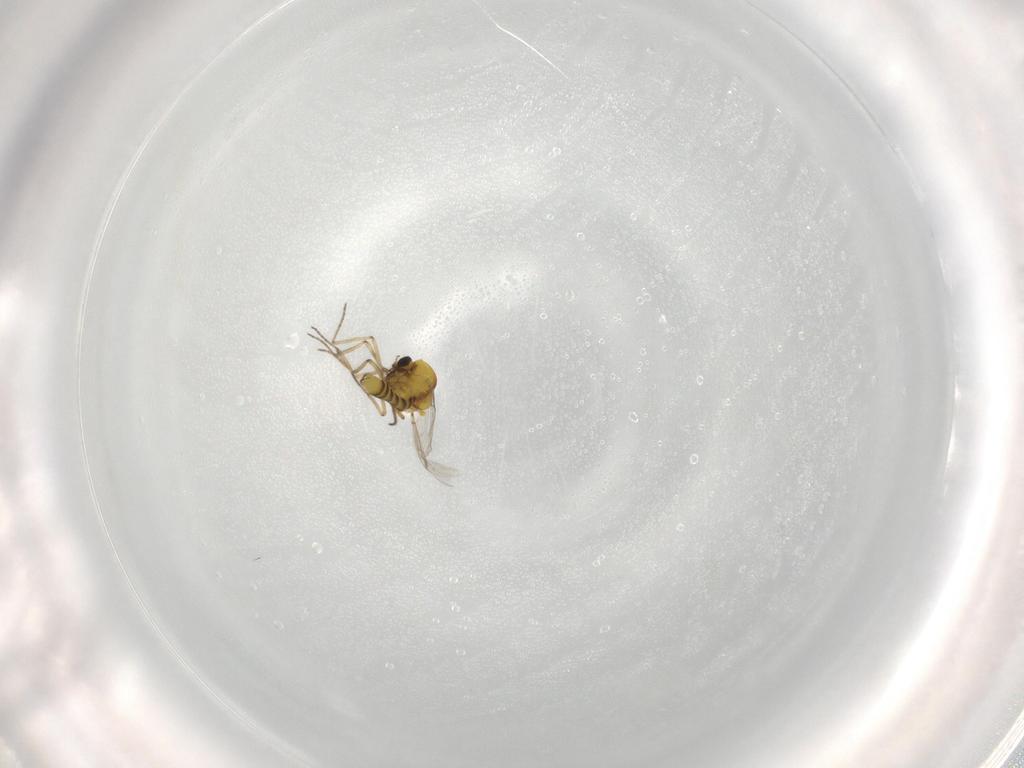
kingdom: Animalia
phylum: Arthropoda
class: Insecta
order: Diptera
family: Ceratopogonidae
